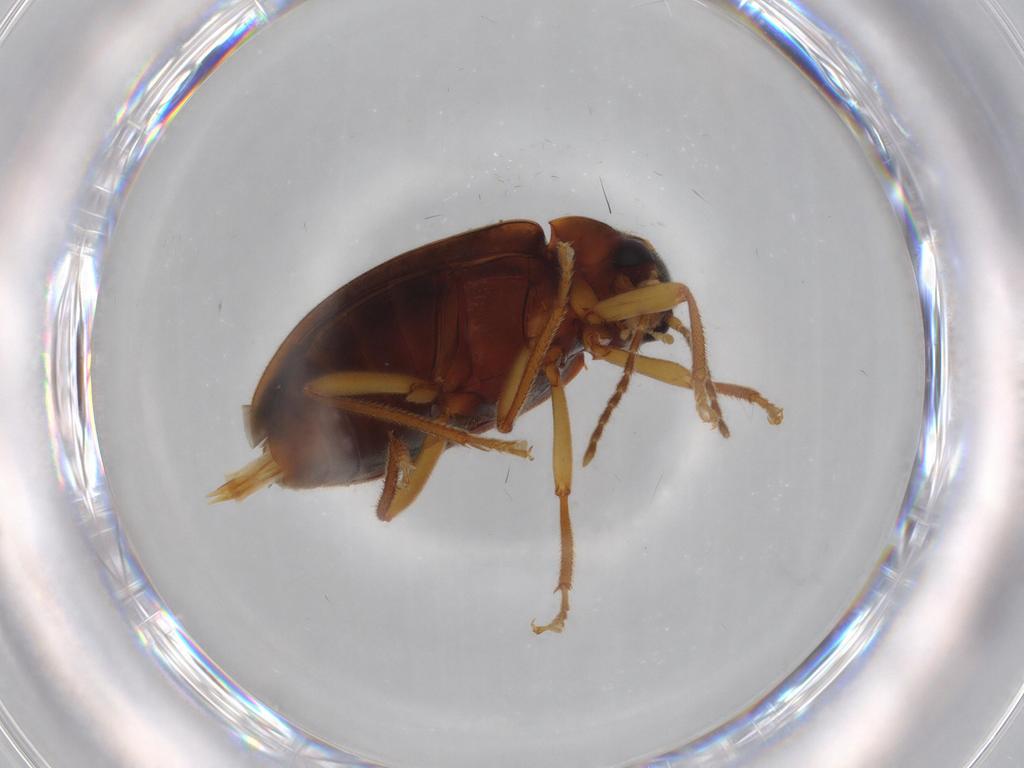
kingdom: Animalia
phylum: Arthropoda
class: Insecta
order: Coleoptera
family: Ptilodactylidae
